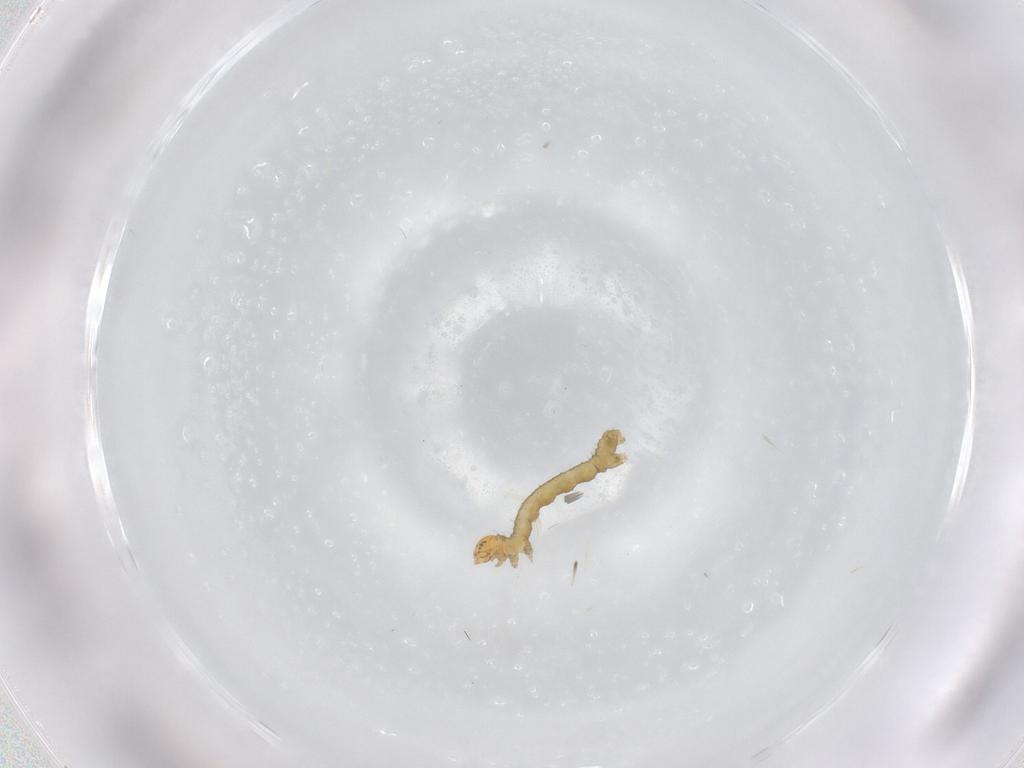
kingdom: Animalia
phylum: Arthropoda
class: Insecta
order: Lepidoptera
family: Geometridae
